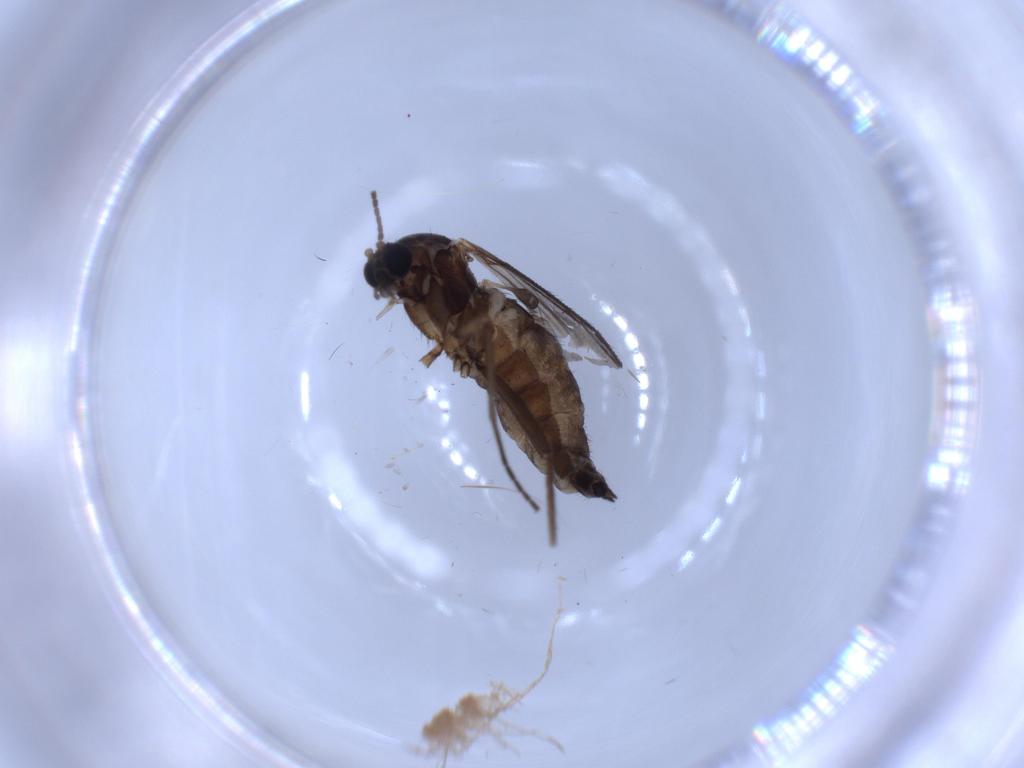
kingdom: Animalia
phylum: Arthropoda
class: Insecta
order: Diptera
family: Sciaridae
